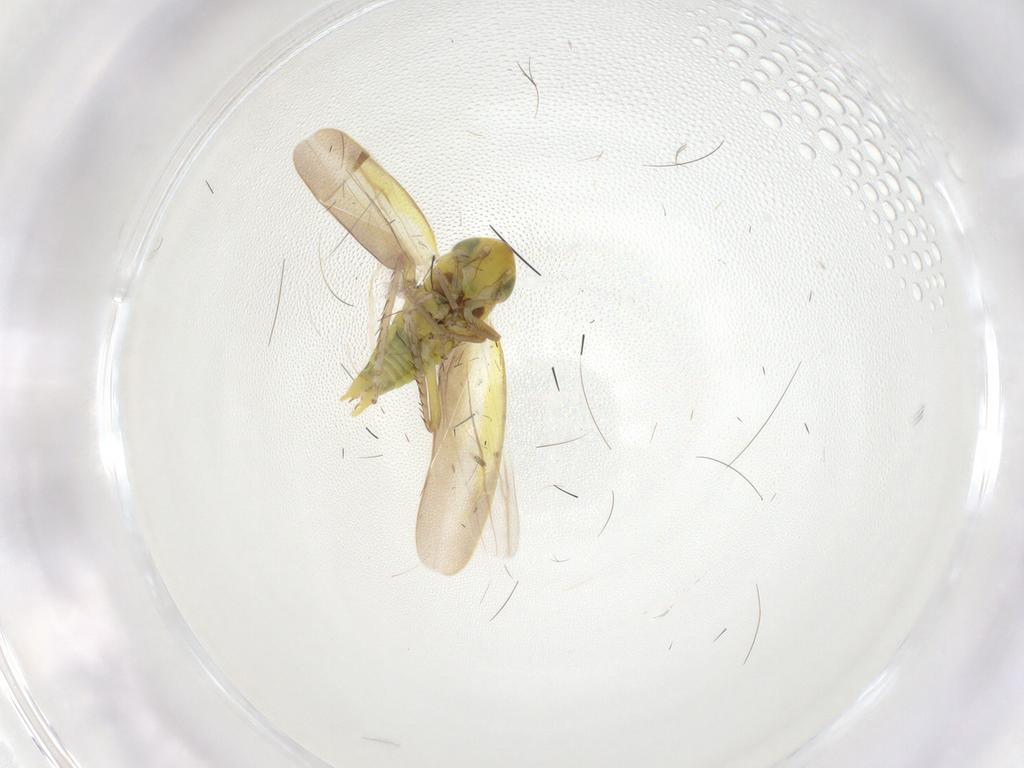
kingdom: Animalia
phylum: Arthropoda
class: Insecta
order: Hemiptera
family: Cicadellidae
